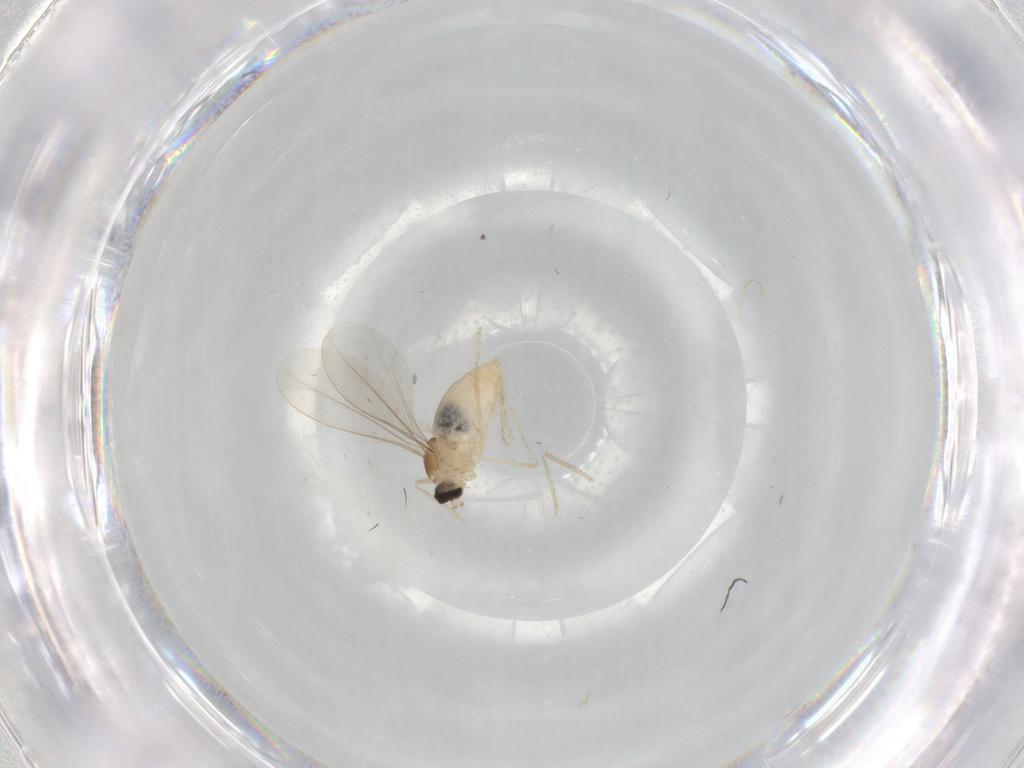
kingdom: Animalia
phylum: Arthropoda
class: Insecta
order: Diptera
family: Cecidomyiidae
